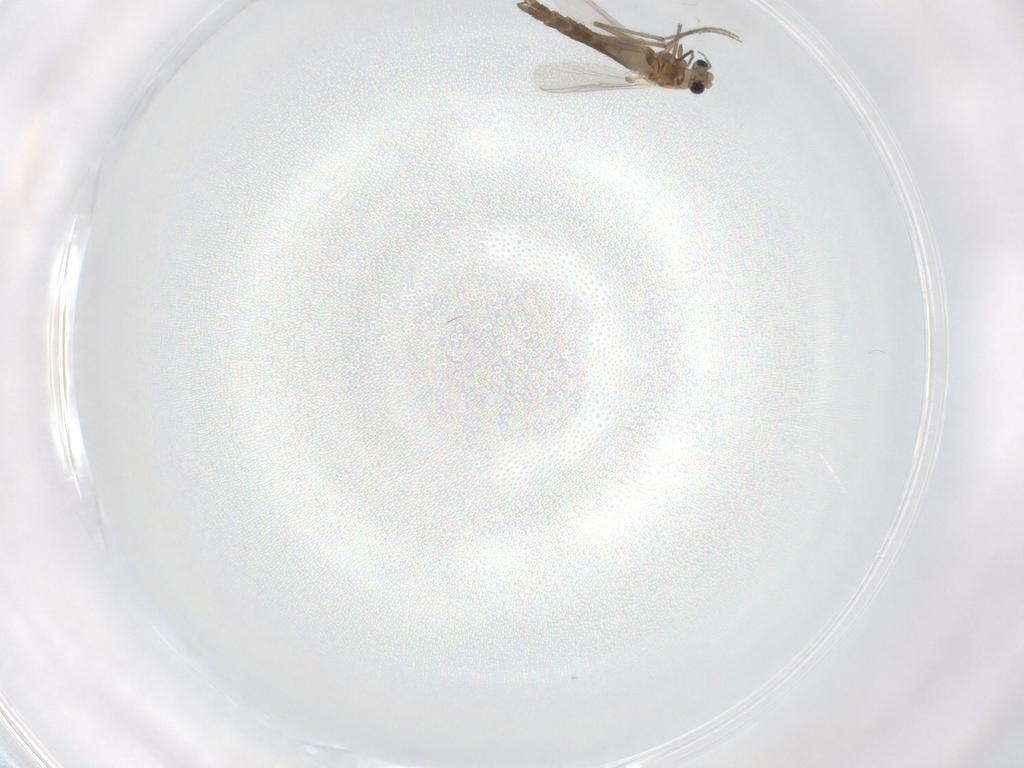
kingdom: Animalia
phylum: Arthropoda
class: Insecta
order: Diptera
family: Chironomidae
